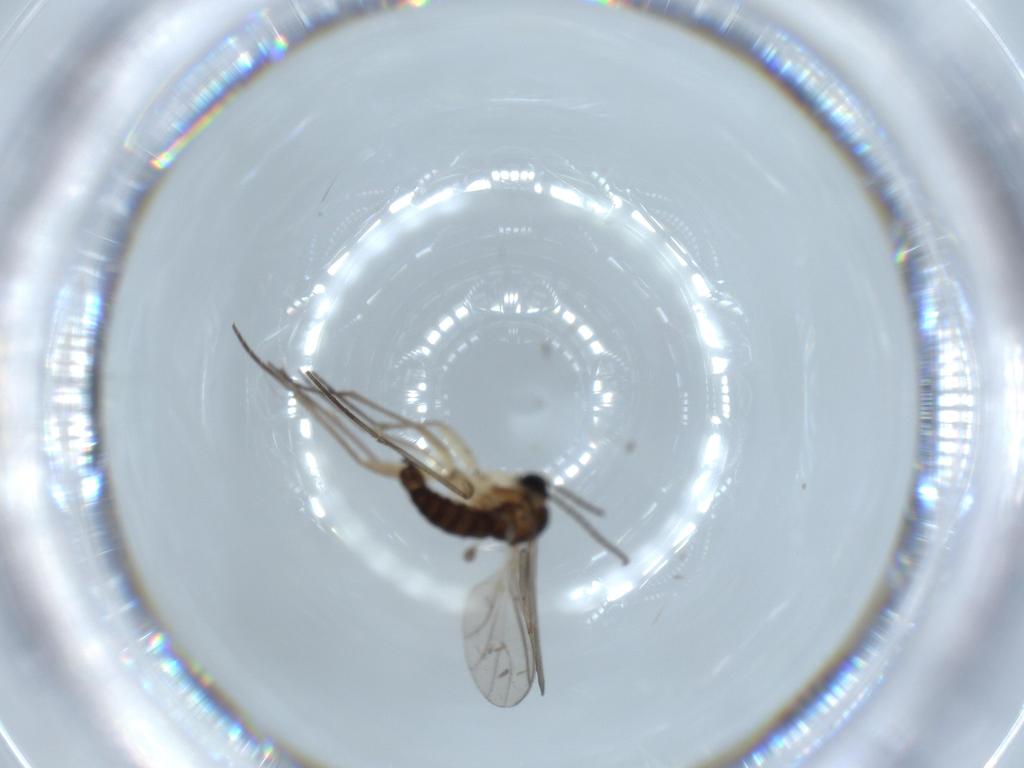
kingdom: Animalia
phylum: Arthropoda
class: Insecta
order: Diptera
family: Sciaridae
